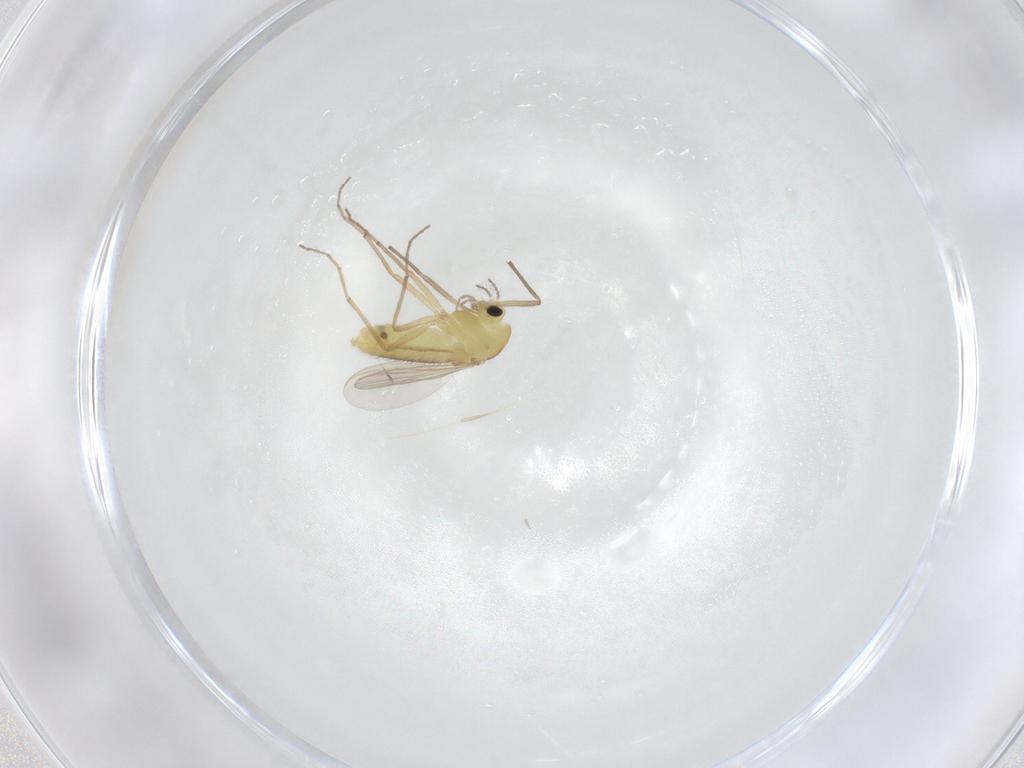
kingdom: Animalia
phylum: Arthropoda
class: Insecta
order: Diptera
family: Chironomidae
